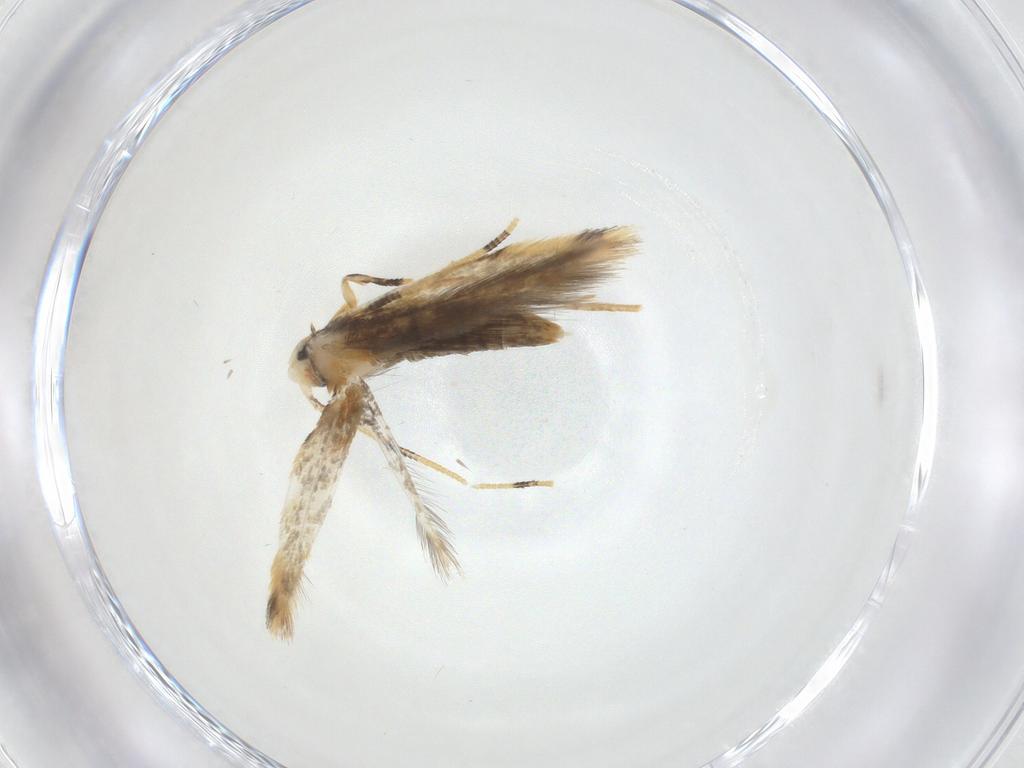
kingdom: Animalia
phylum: Arthropoda
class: Insecta
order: Lepidoptera
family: Tineidae
